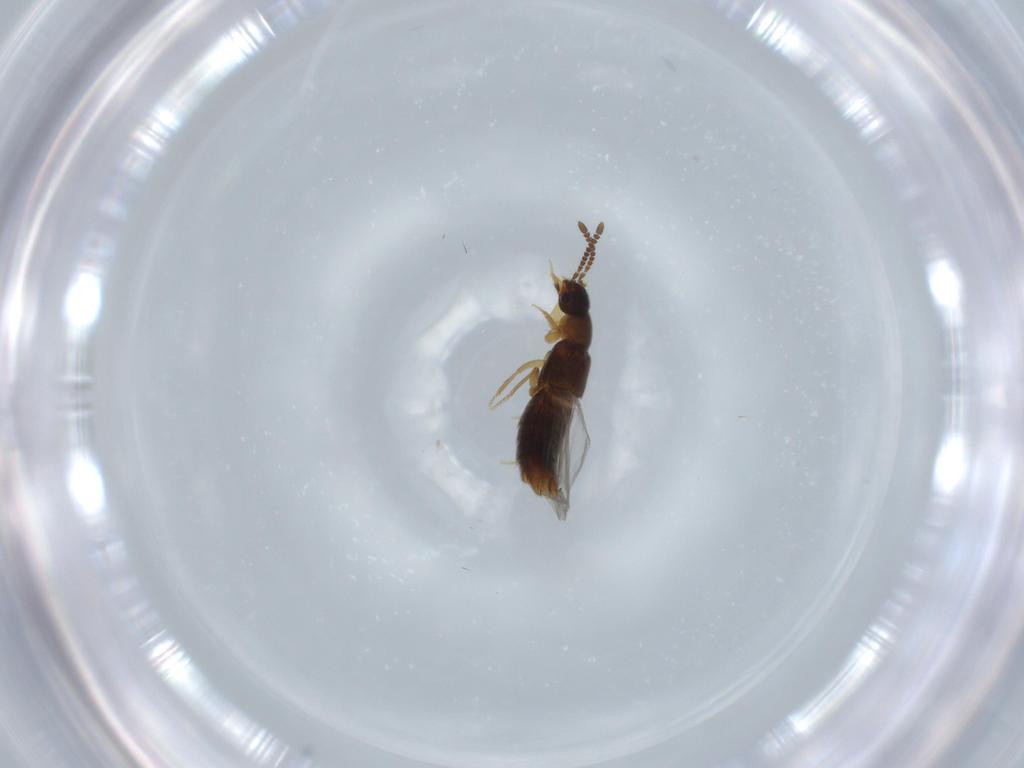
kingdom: Animalia
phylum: Arthropoda
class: Insecta
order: Coleoptera
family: Staphylinidae
